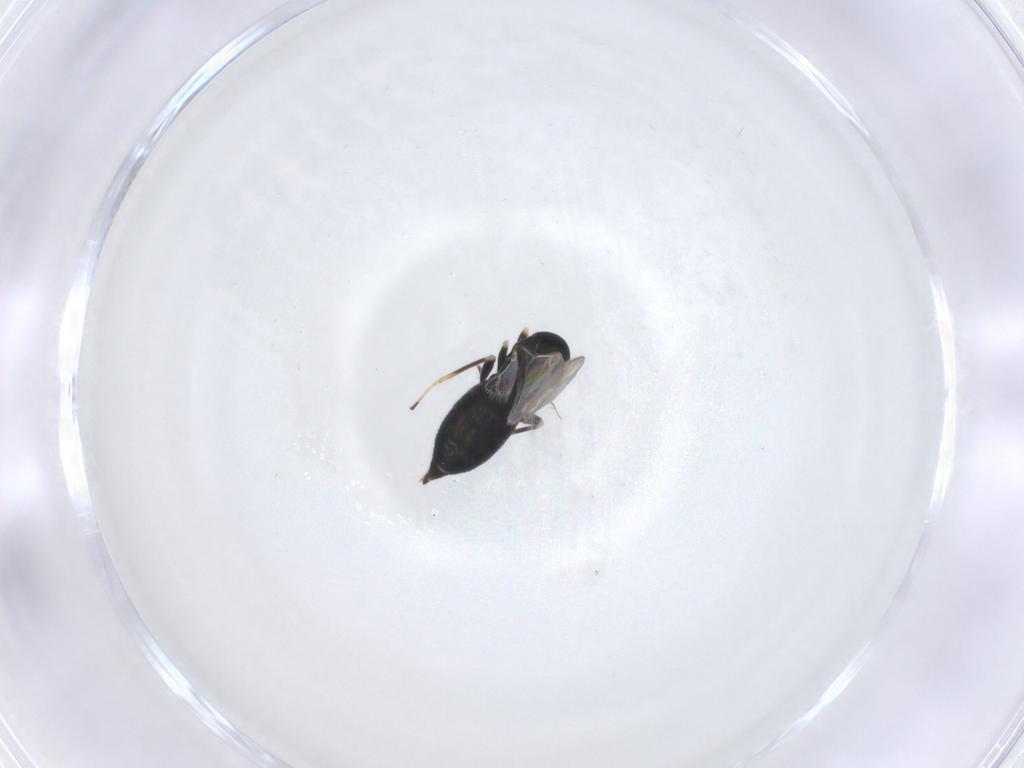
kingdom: Animalia
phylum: Arthropoda
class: Insecta
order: Hymenoptera
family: Eulophidae
